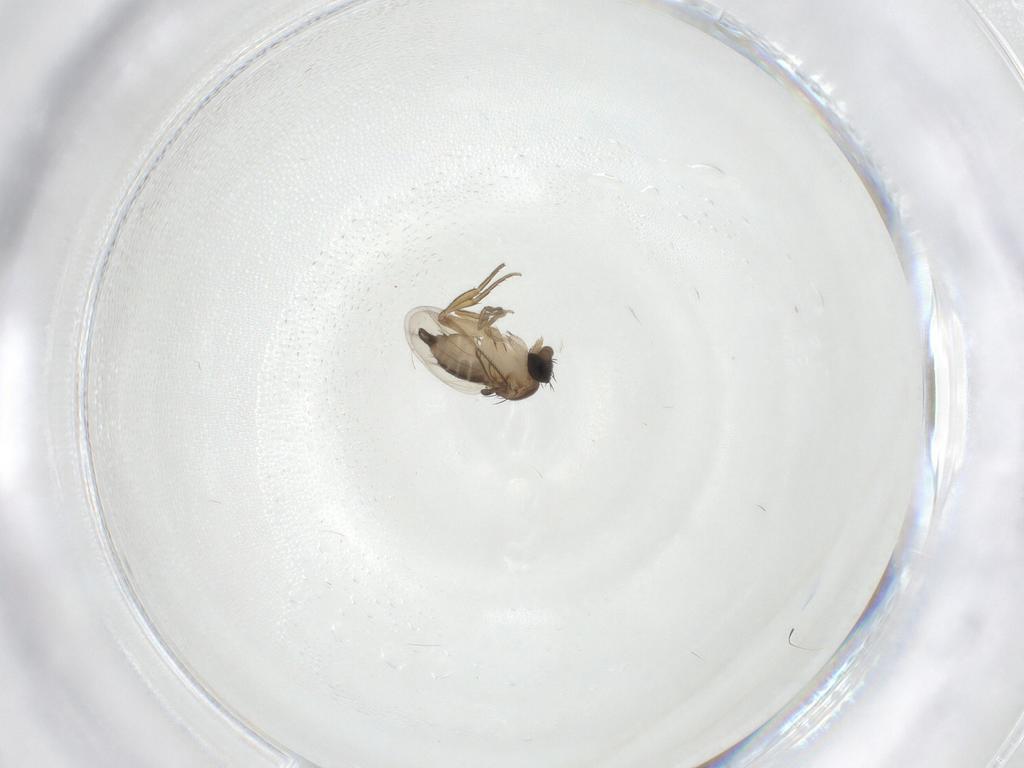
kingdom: Animalia
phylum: Arthropoda
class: Insecta
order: Diptera
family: Chironomidae
